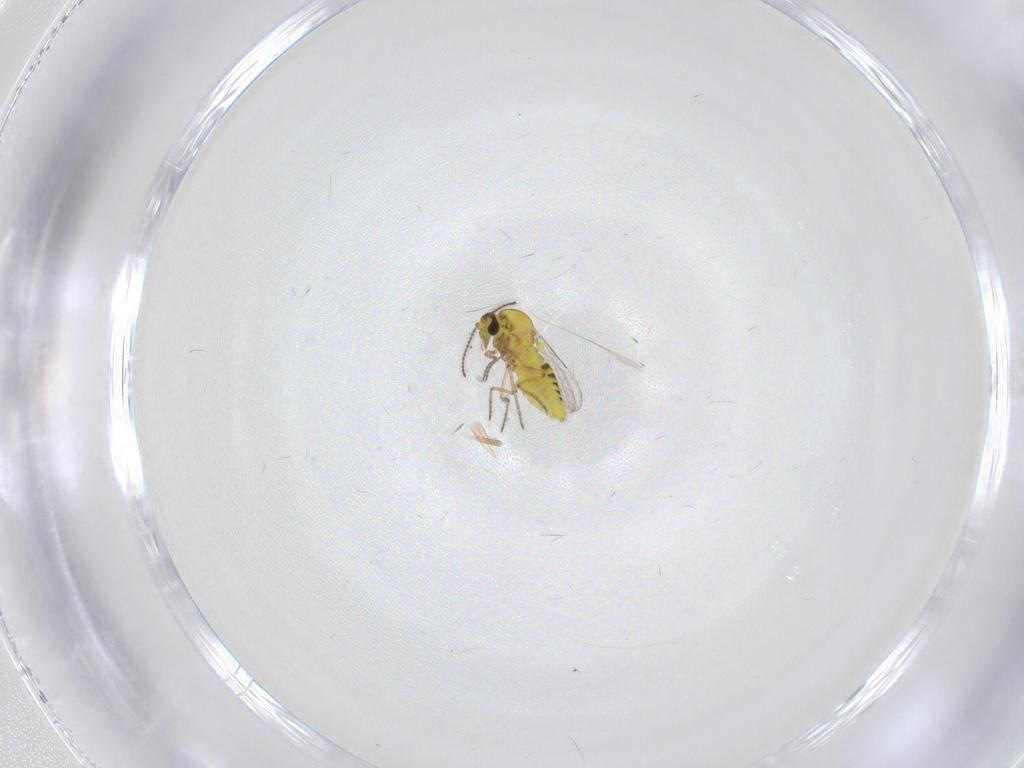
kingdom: Animalia
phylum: Arthropoda
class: Insecta
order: Diptera
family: Ceratopogonidae
